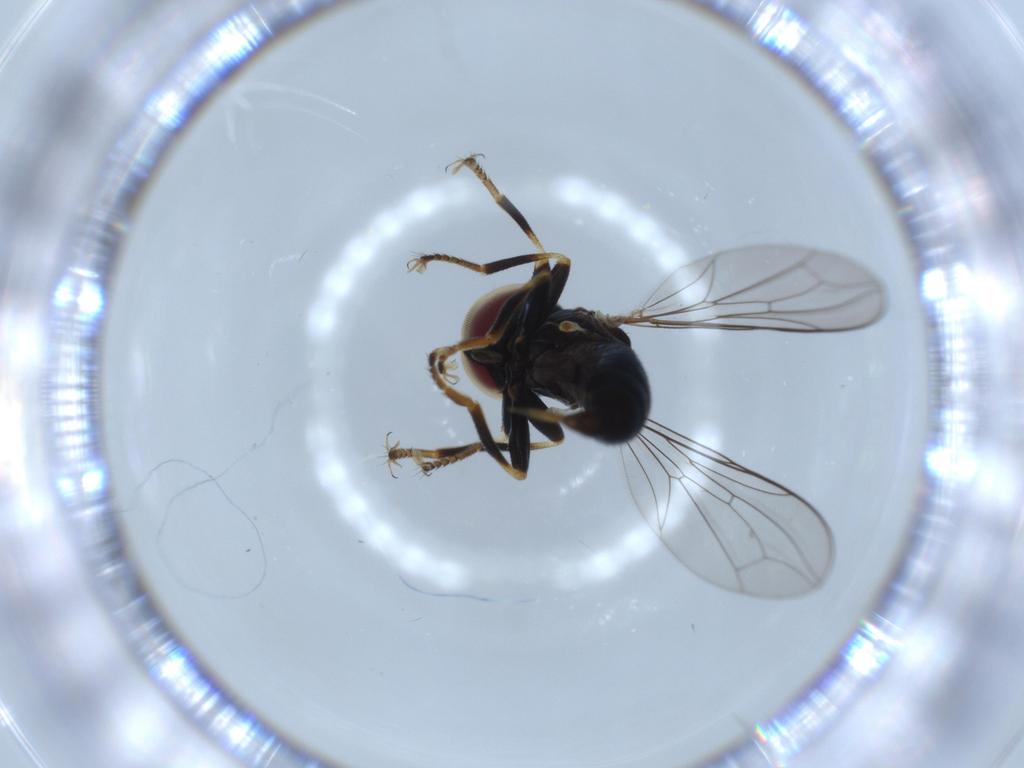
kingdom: Animalia
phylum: Arthropoda
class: Insecta
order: Diptera
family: Pipunculidae
